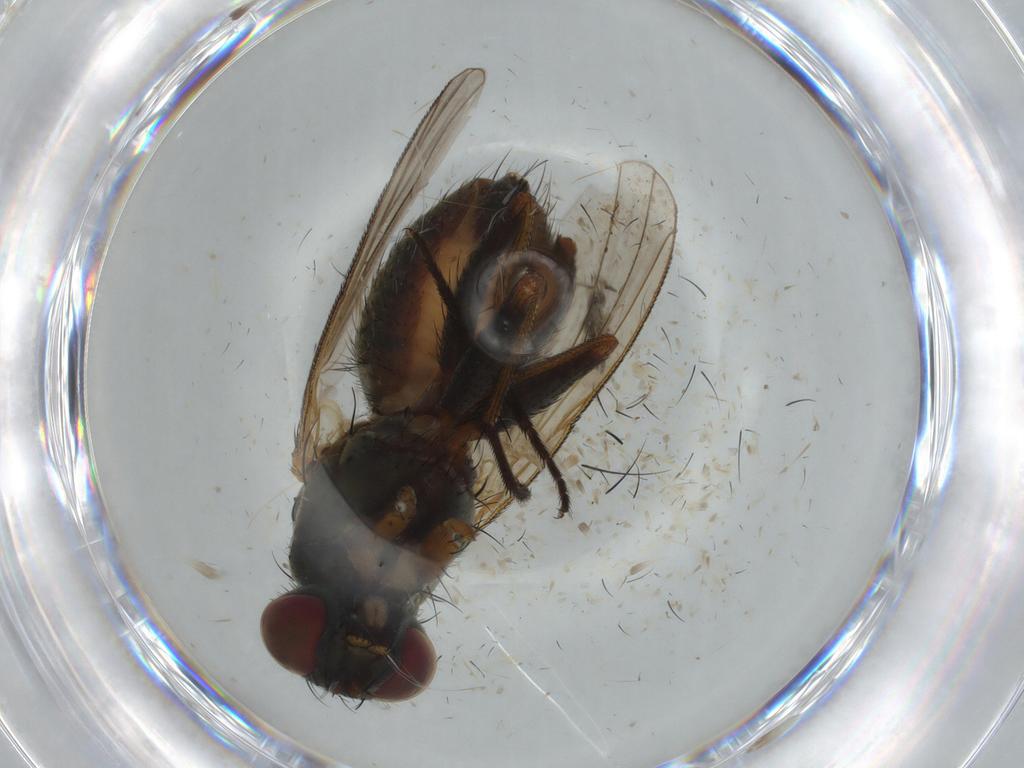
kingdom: Animalia
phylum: Arthropoda
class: Insecta
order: Diptera
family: Muscidae
